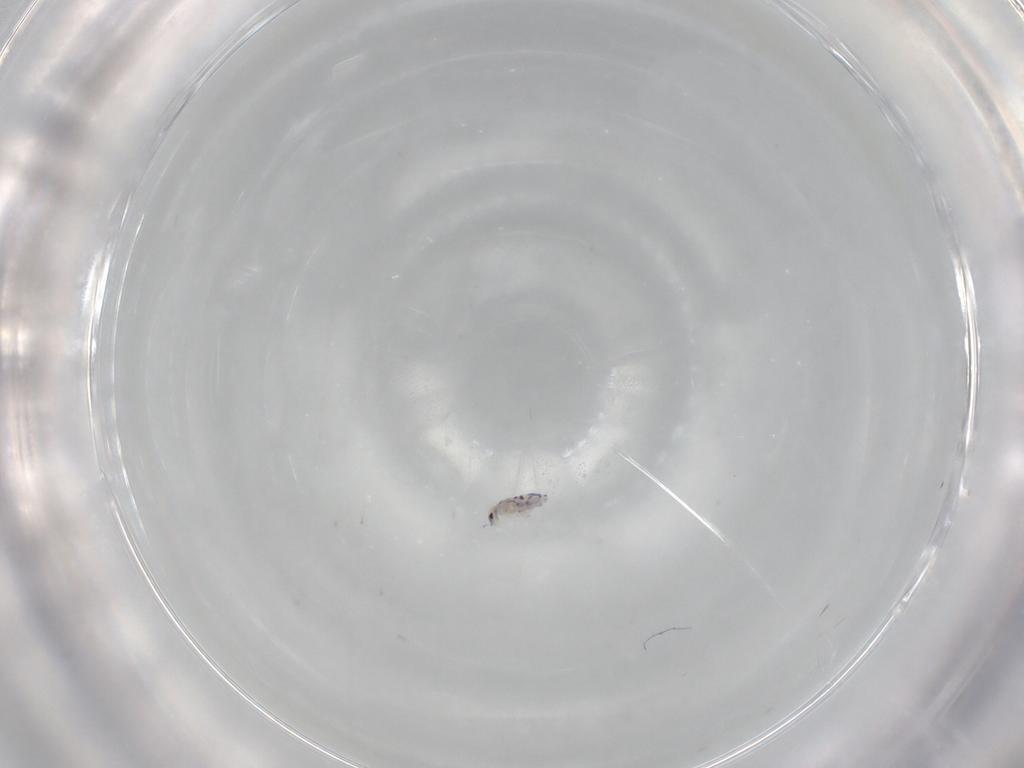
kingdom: Animalia
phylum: Arthropoda
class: Collembola
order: Entomobryomorpha
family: Entomobryidae
